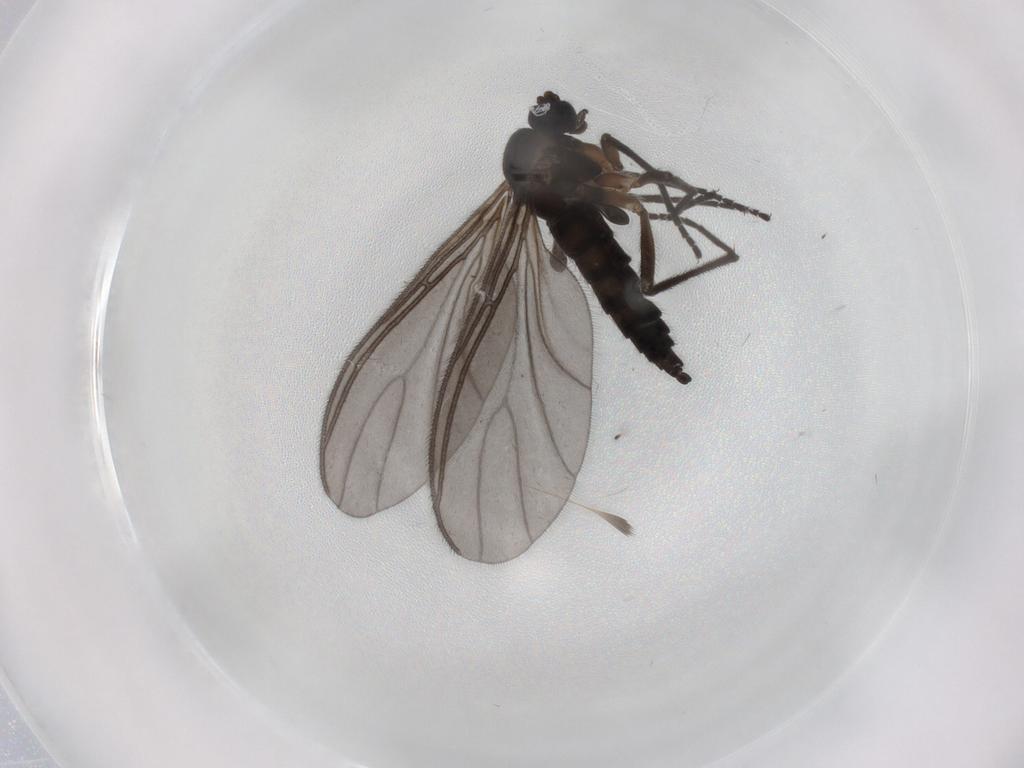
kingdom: Animalia
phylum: Arthropoda
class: Insecta
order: Diptera
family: Sciaridae
